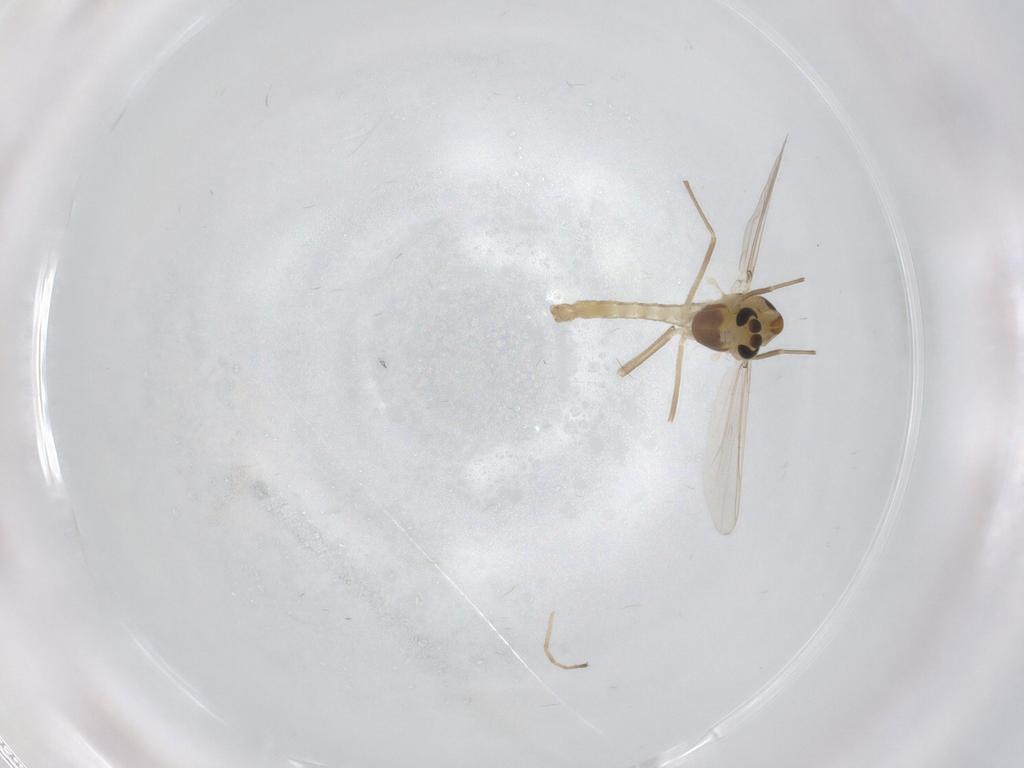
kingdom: Animalia
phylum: Arthropoda
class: Insecta
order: Diptera
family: Chironomidae
